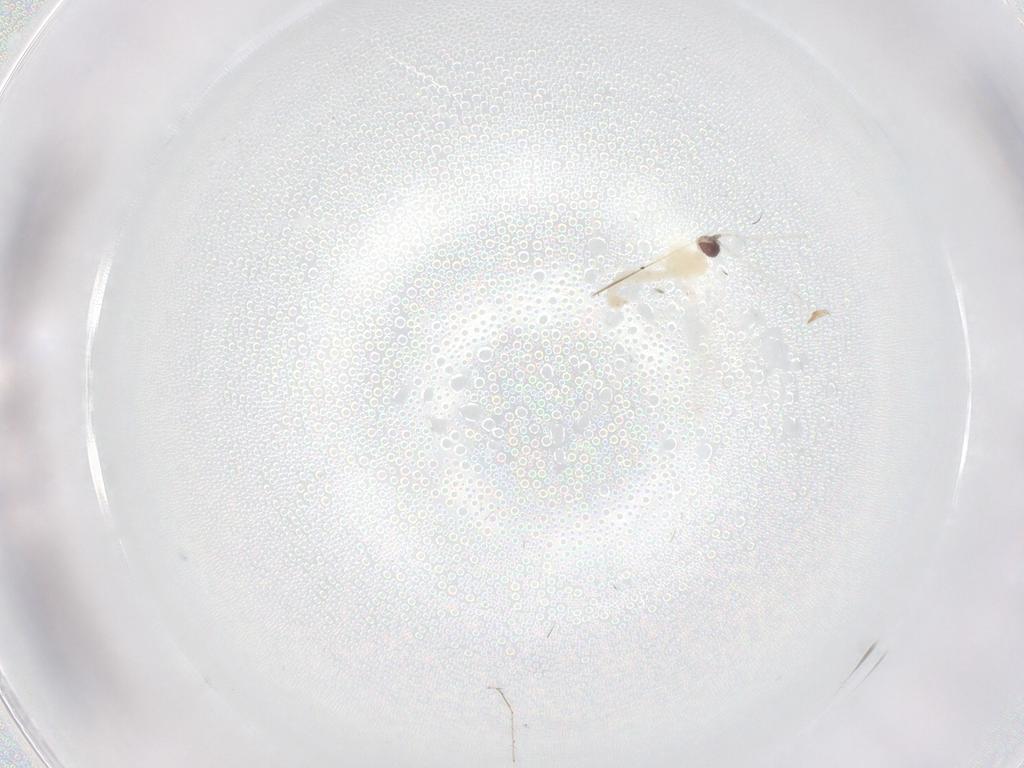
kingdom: Animalia
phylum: Arthropoda
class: Insecta
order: Diptera
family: Cecidomyiidae
